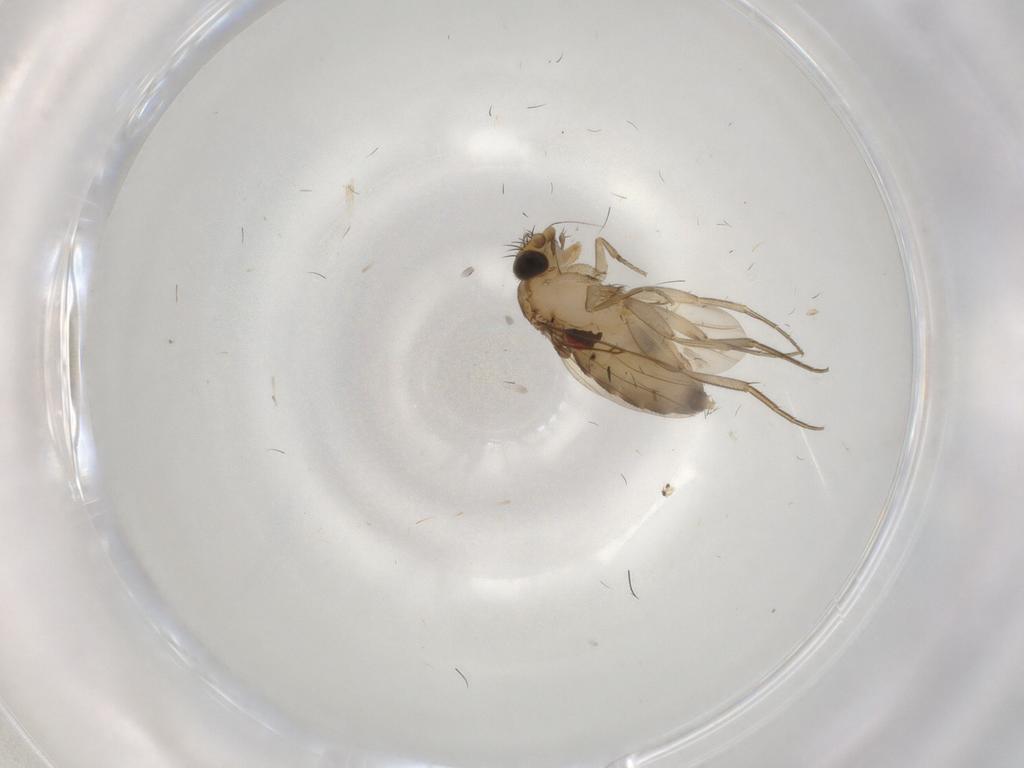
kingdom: Animalia
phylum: Arthropoda
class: Insecta
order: Diptera
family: Phoridae
